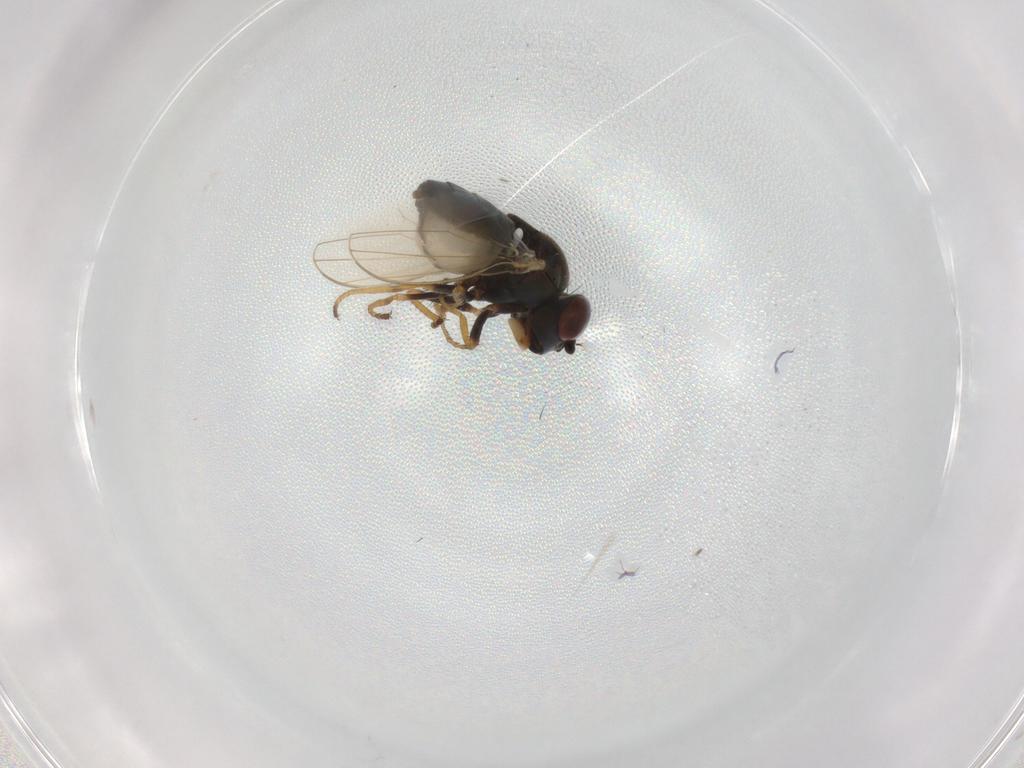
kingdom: Animalia
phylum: Arthropoda
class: Insecta
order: Diptera
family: Ephydridae
